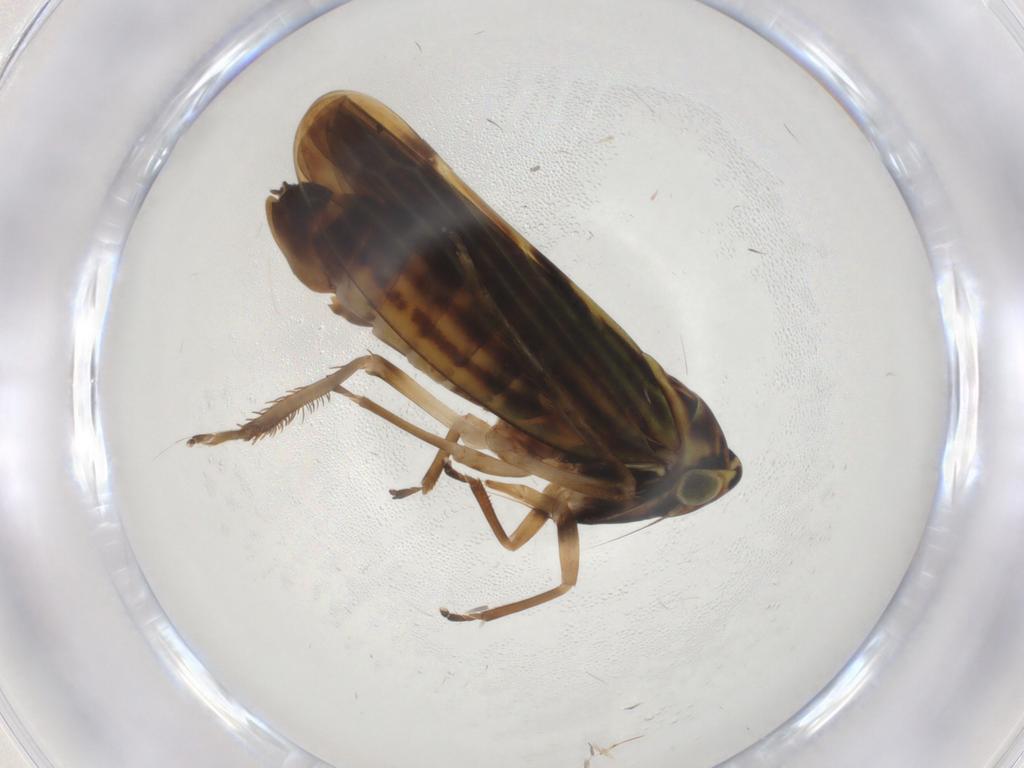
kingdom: Animalia
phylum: Arthropoda
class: Insecta
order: Hemiptera
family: Cicadellidae
